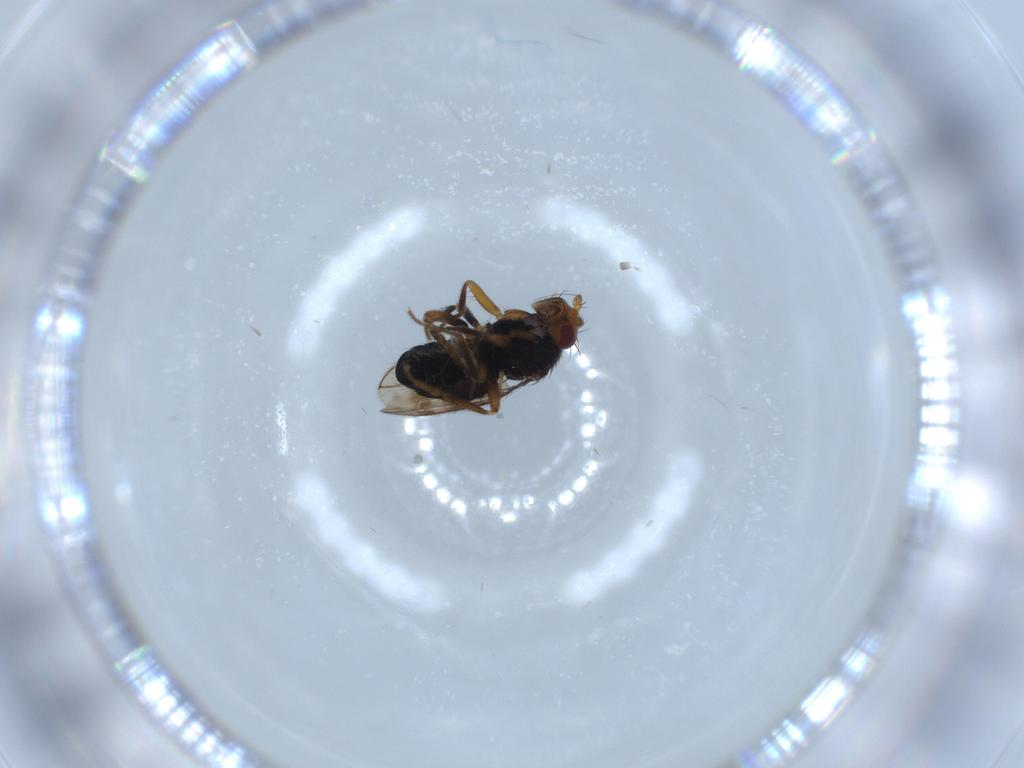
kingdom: Animalia
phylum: Arthropoda
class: Insecta
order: Diptera
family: Sphaeroceridae
